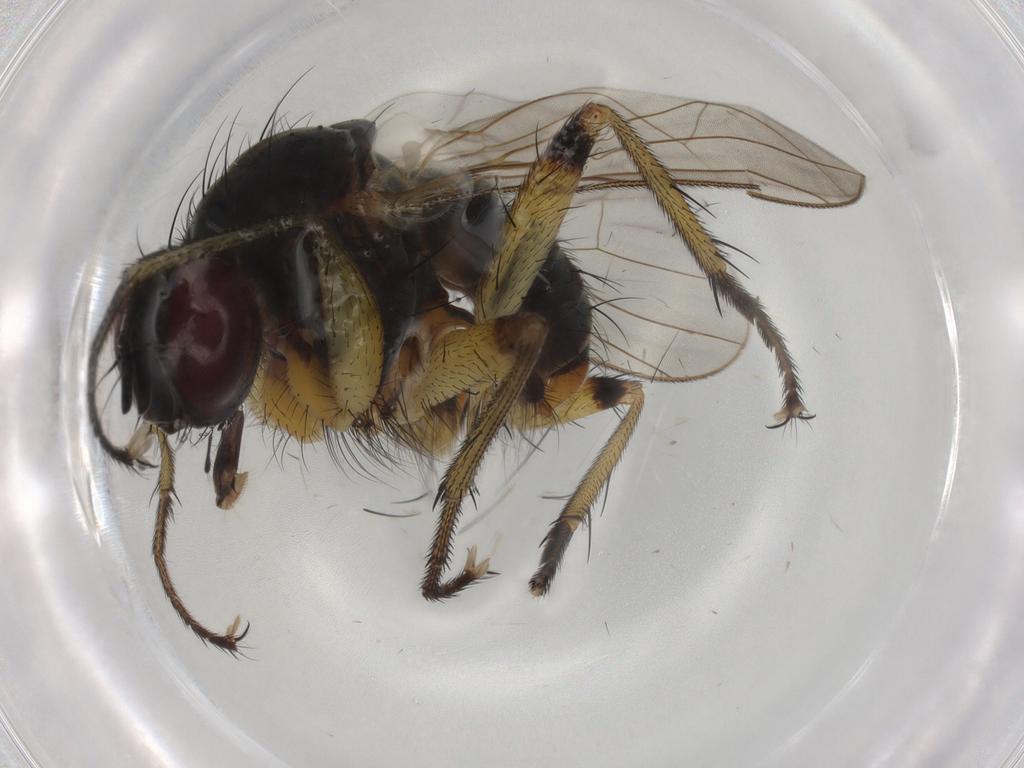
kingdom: Animalia
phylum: Arthropoda
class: Insecta
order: Diptera
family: Ceratopogonidae
